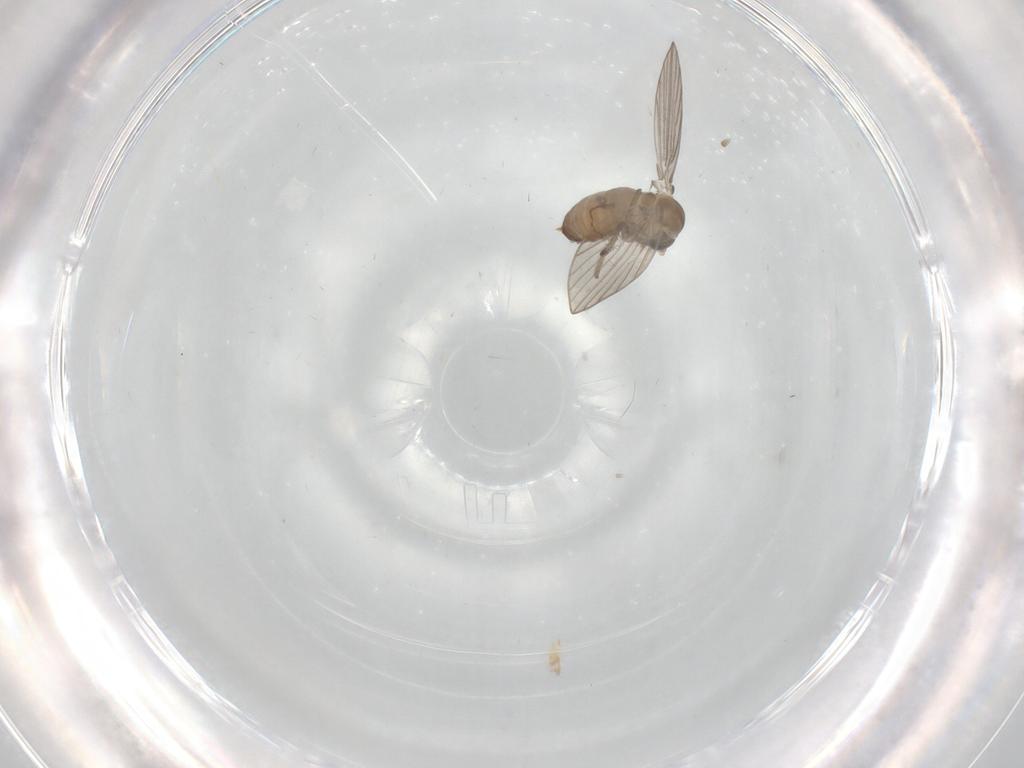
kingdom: Animalia
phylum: Arthropoda
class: Insecta
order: Diptera
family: Psychodidae
